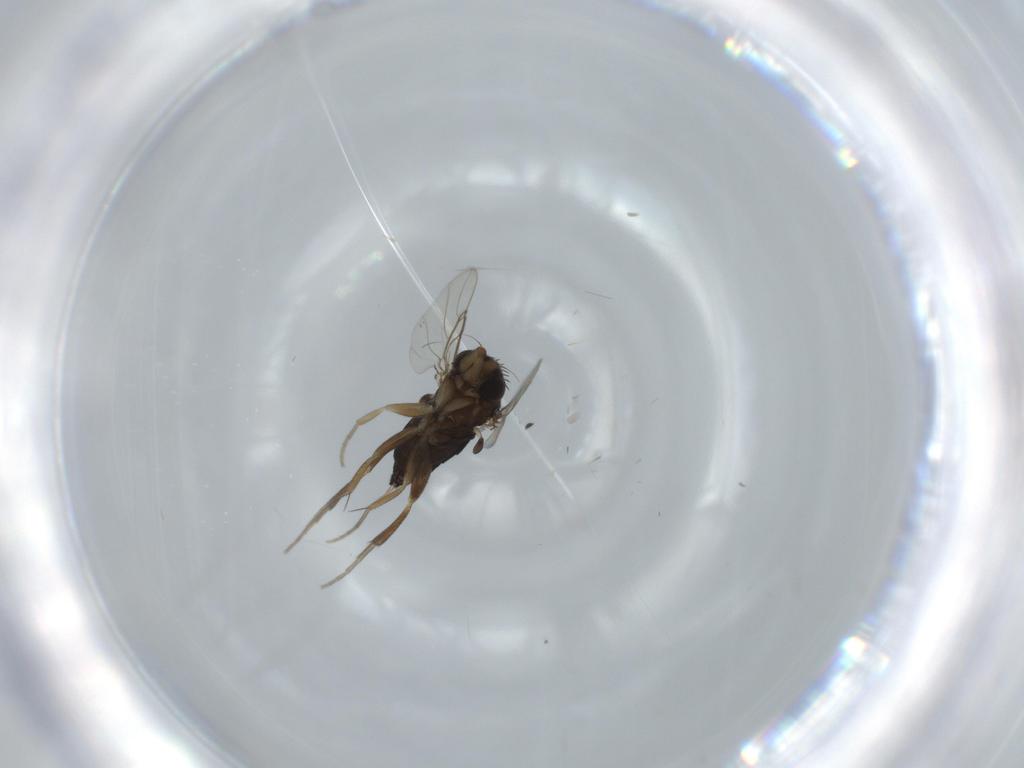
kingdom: Animalia
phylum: Arthropoda
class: Insecta
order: Diptera
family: Phoridae
